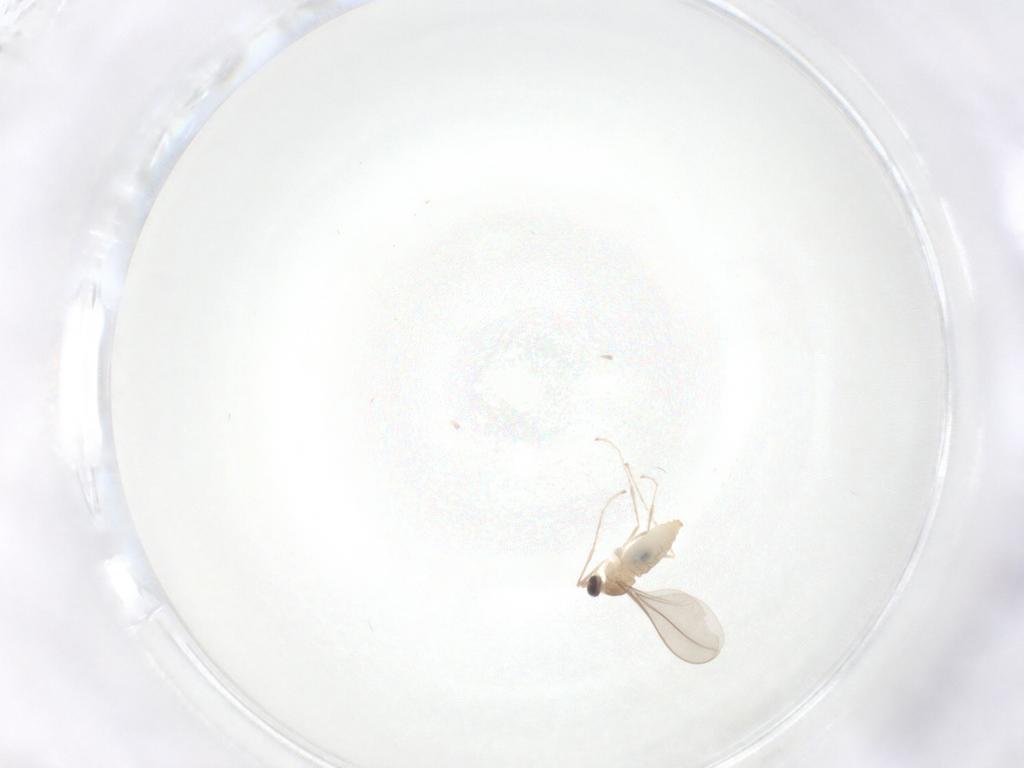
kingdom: Animalia
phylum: Arthropoda
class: Insecta
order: Diptera
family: Cecidomyiidae
